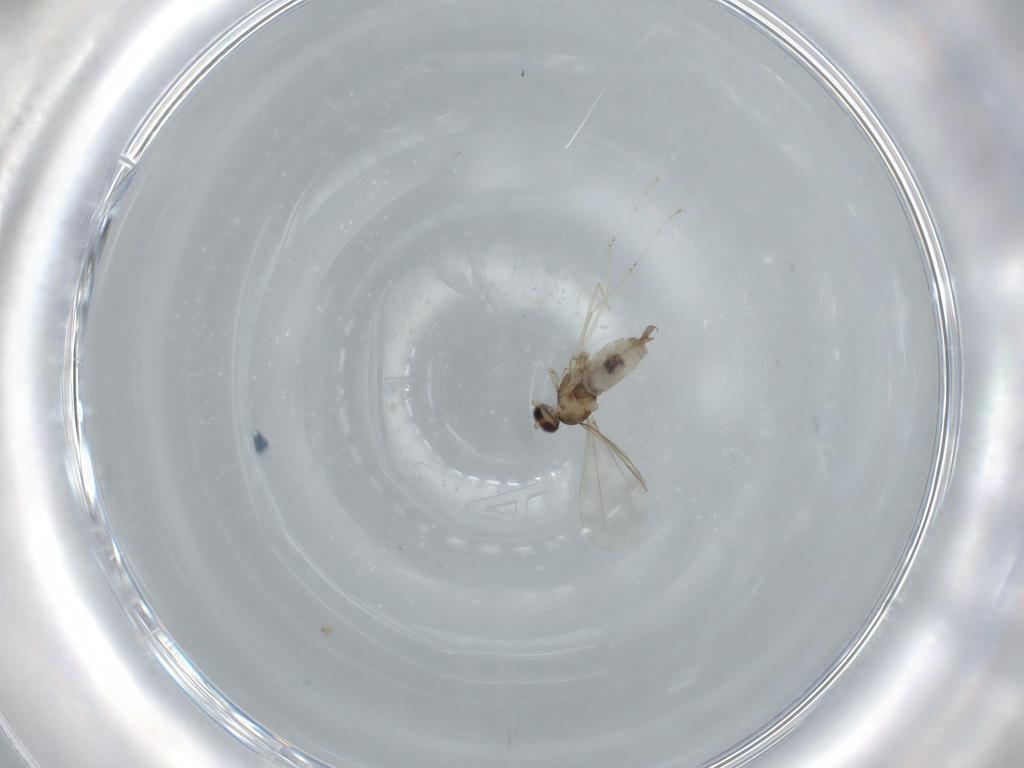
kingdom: Animalia
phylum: Arthropoda
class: Insecta
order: Diptera
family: Cecidomyiidae
